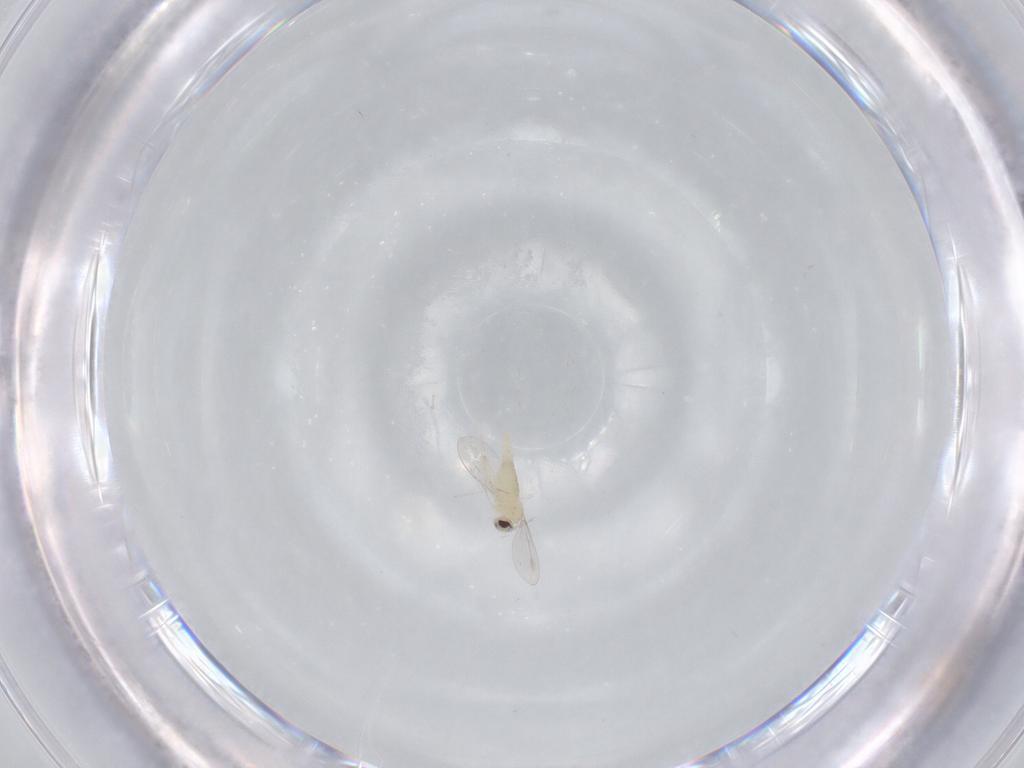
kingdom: Animalia
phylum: Arthropoda
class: Insecta
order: Diptera
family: Cecidomyiidae
